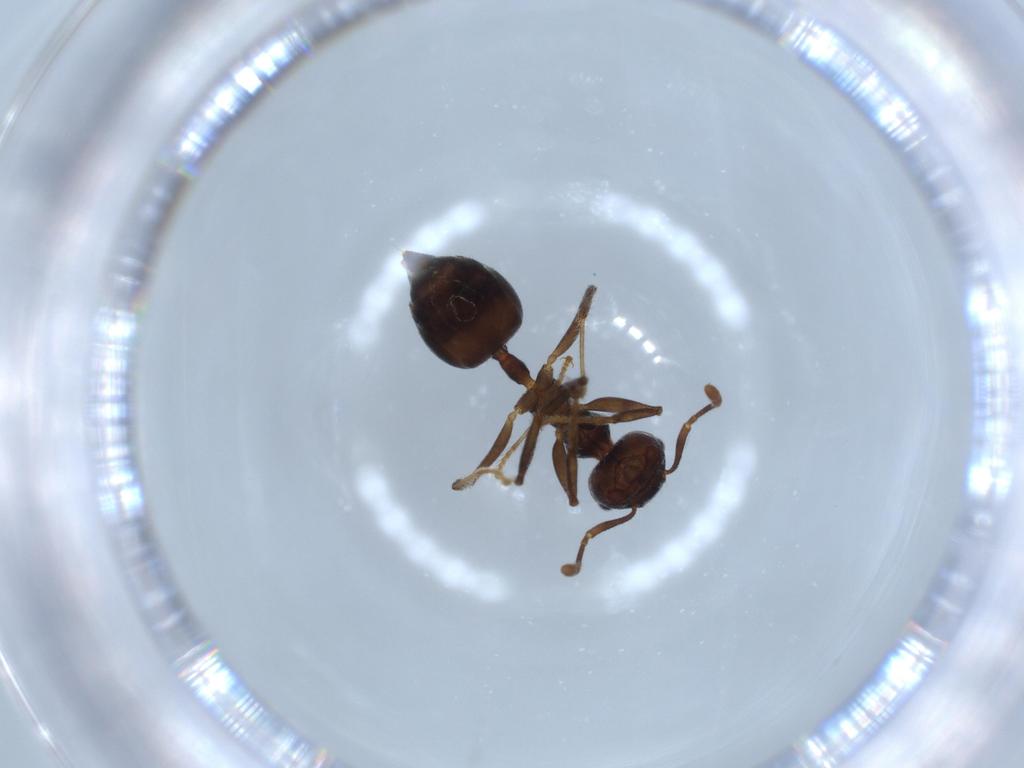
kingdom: Animalia
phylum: Arthropoda
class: Insecta
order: Hymenoptera
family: Formicidae
